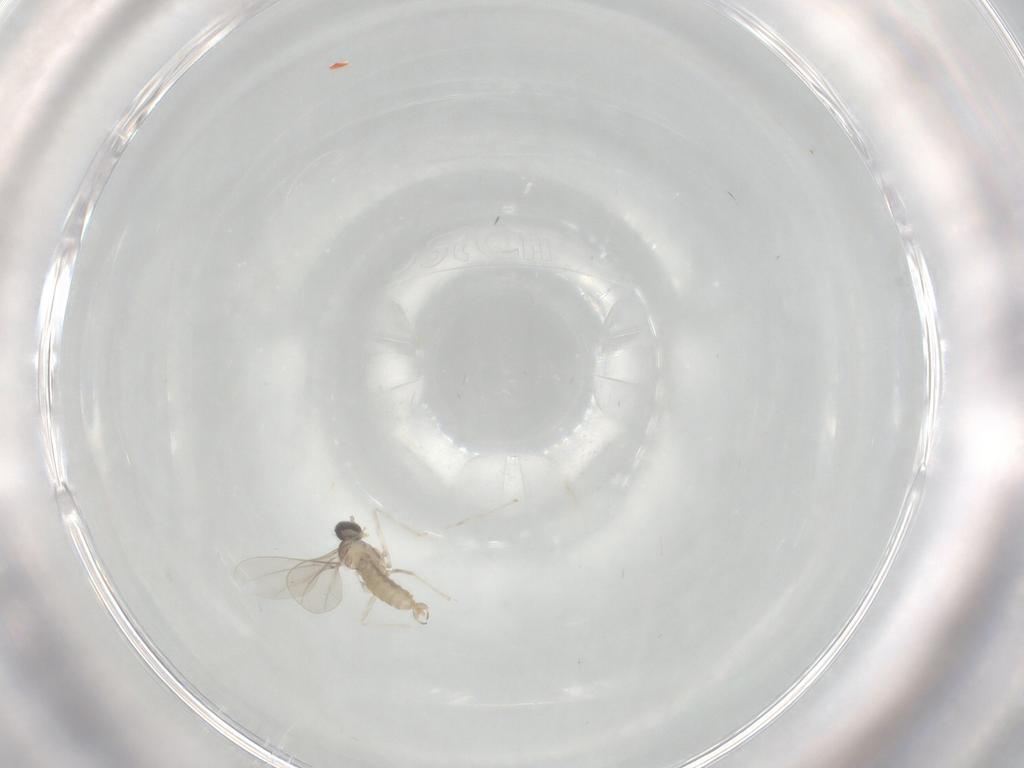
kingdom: Animalia
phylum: Arthropoda
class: Insecta
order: Diptera
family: Cecidomyiidae
